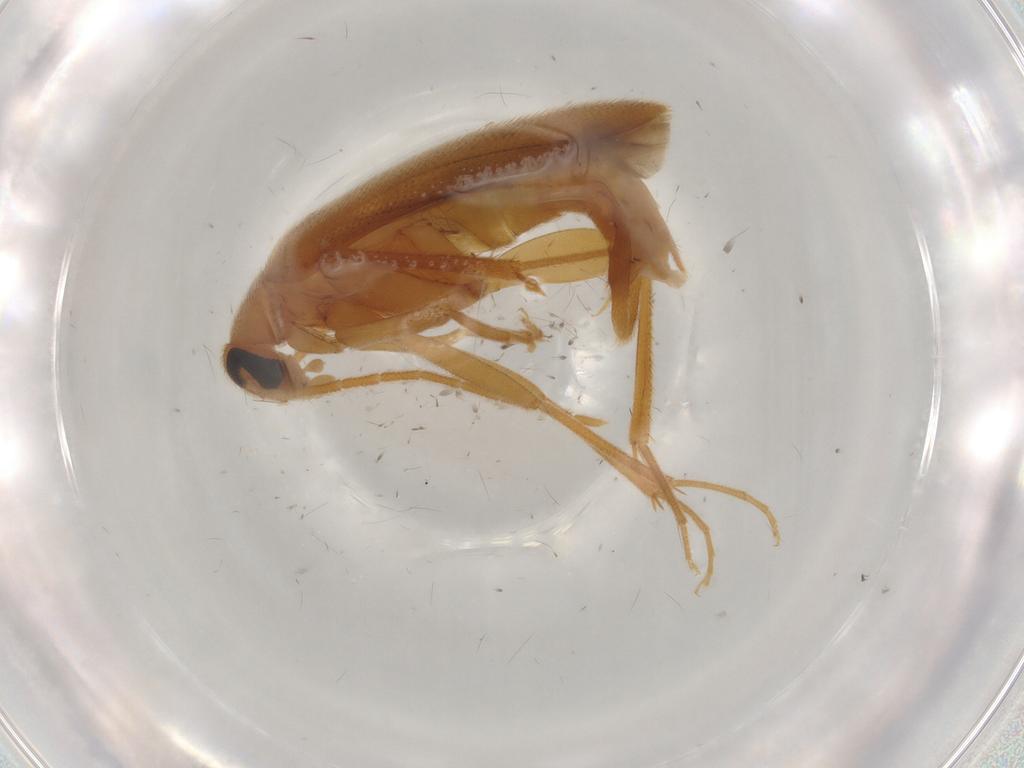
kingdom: Animalia
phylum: Arthropoda
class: Insecta
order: Coleoptera
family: Scraptiidae
